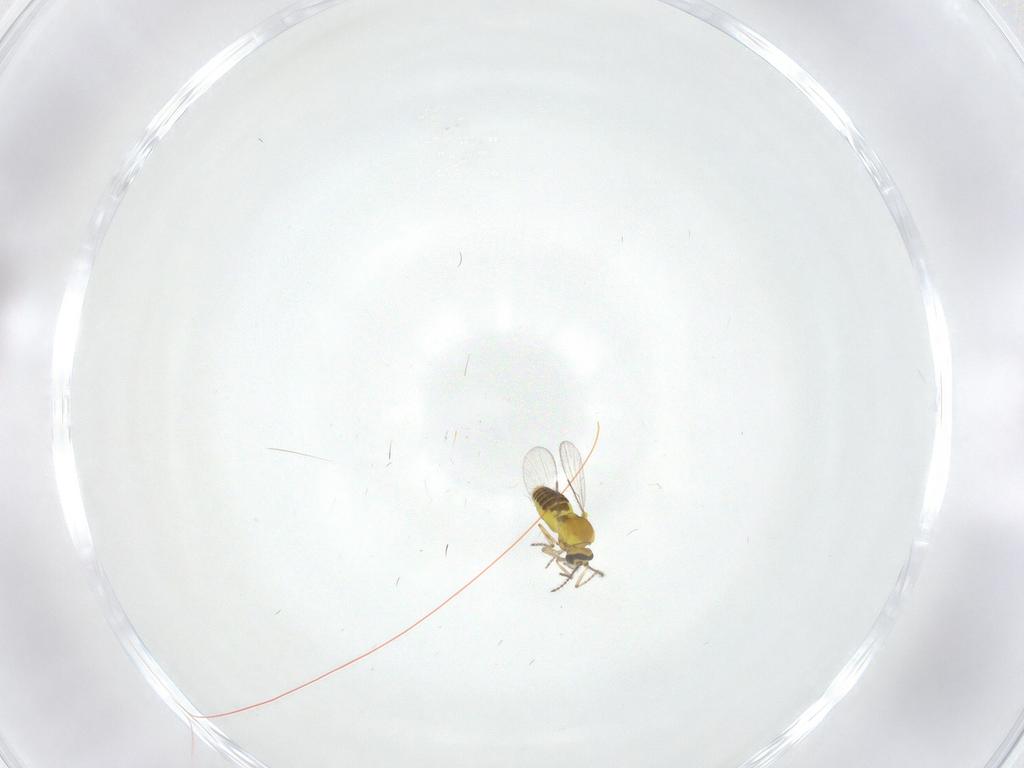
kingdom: Animalia
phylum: Arthropoda
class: Insecta
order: Diptera
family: Ceratopogonidae
